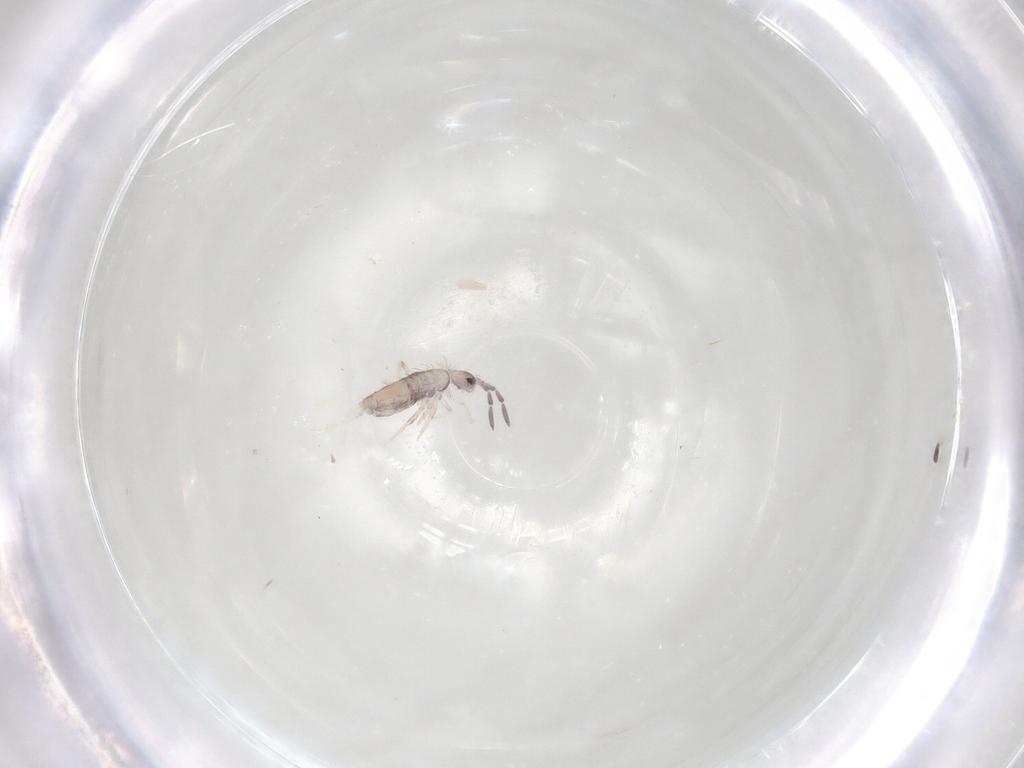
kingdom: Animalia
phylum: Arthropoda
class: Collembola
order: Entomobryomorpha
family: Entomobryidae
